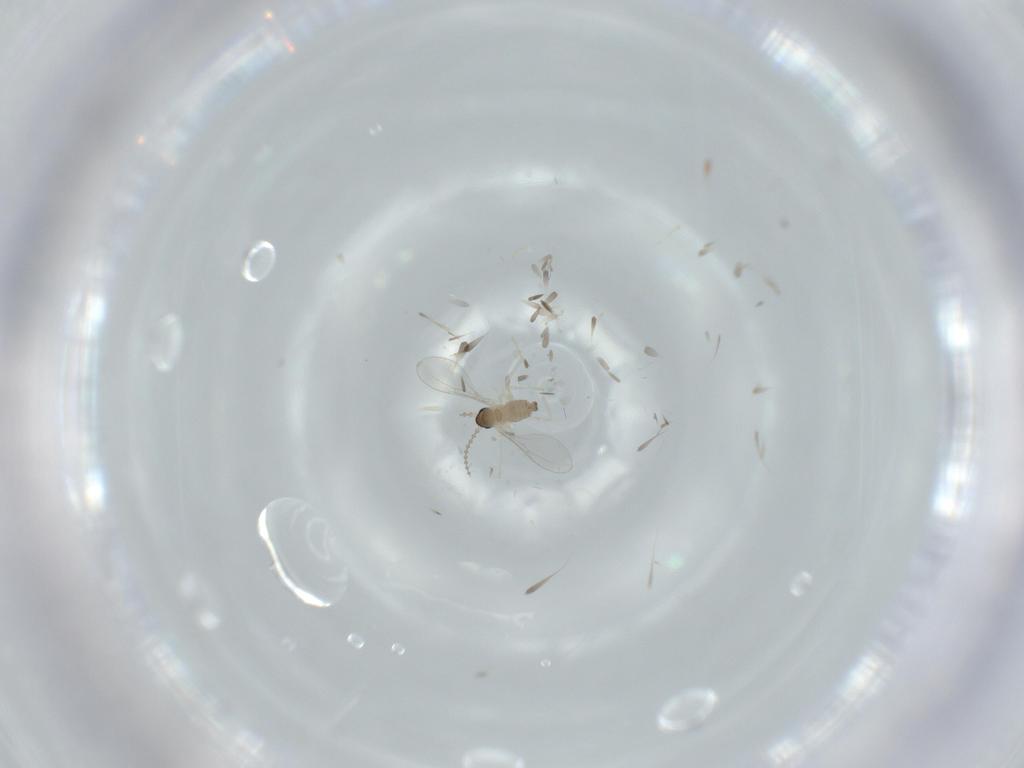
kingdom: Animalia
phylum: Arthropoda
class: Insecta
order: Diptera
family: Cecidomyiidae
